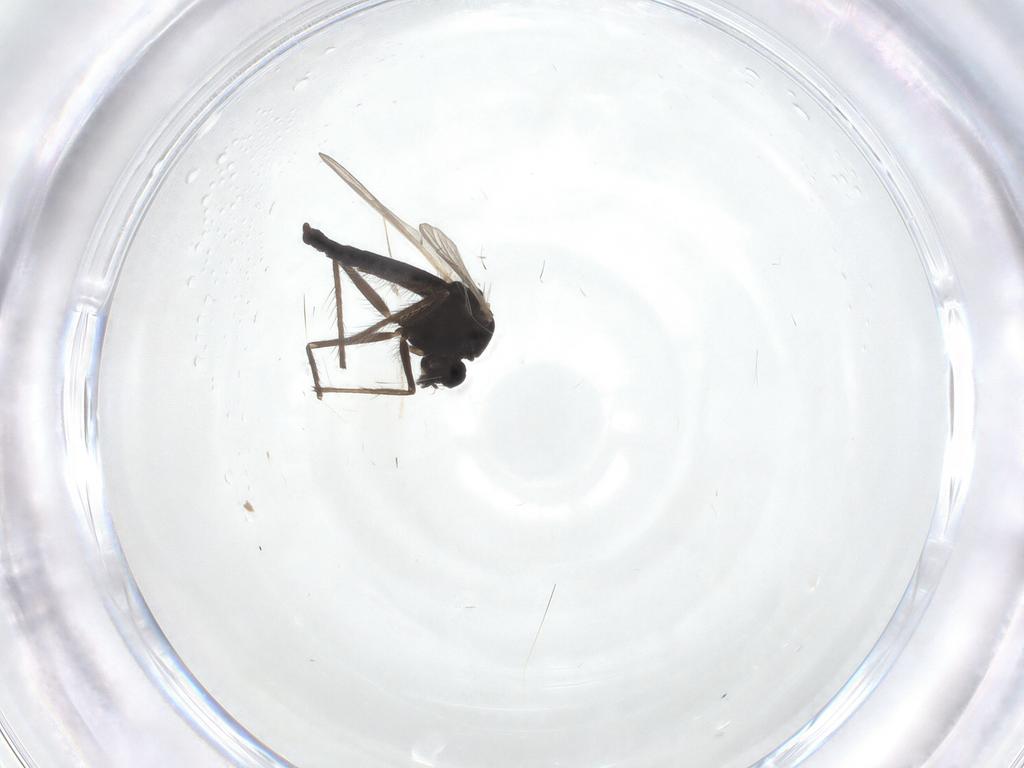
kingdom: Animalia
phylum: Arthropoda
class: Insecta
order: Diptera
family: Chironomidae
